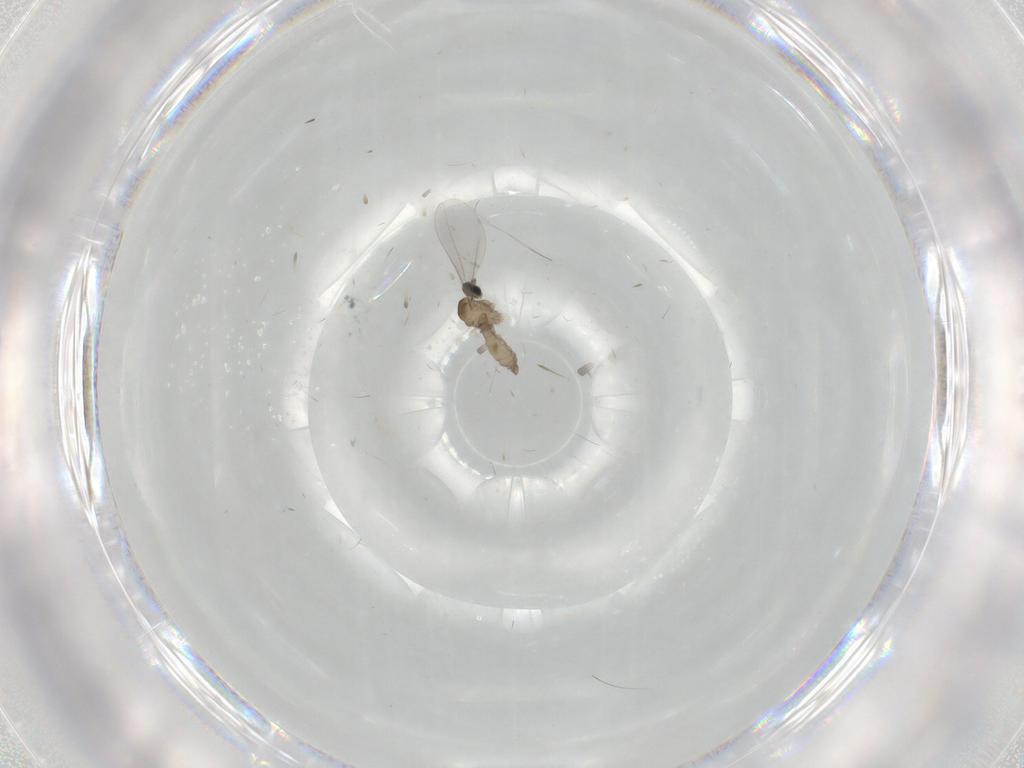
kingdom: Animalia
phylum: Arthropoda
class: Insecta
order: Diptera
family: Cecidomyiidae
